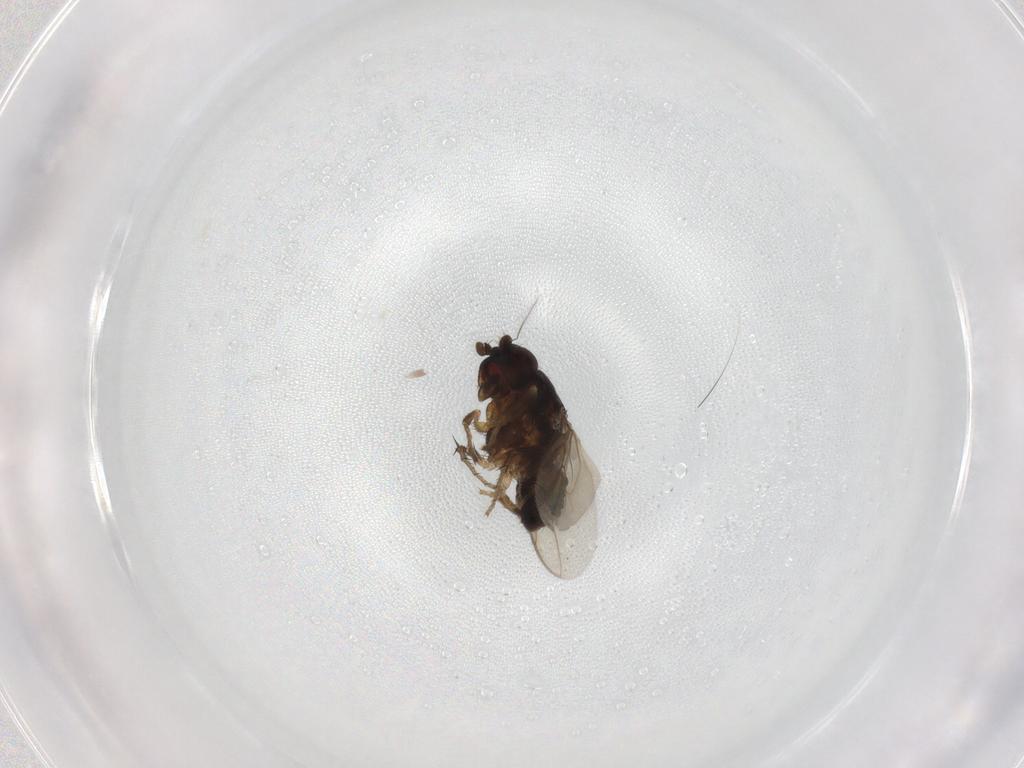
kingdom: Animalia
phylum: Arthropoda
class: Insecta
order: Diptera
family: Sphaeroceridae
